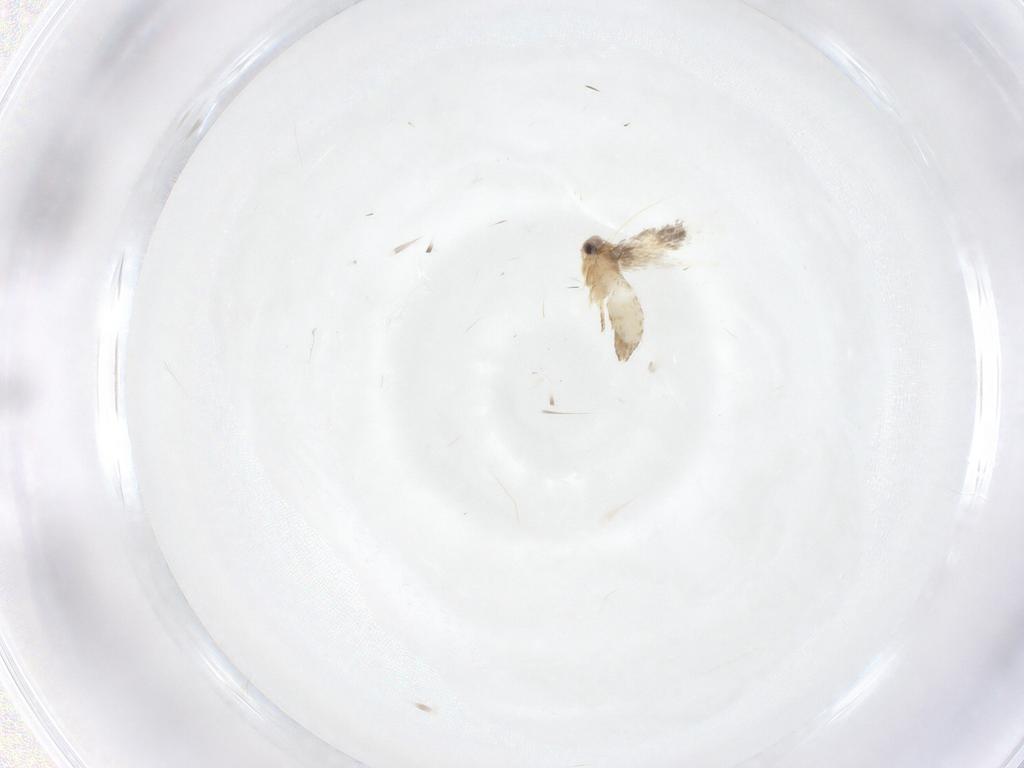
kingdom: Animalia
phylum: Arthropoda
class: Insecta
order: Lepidoptera
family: Nepticulidae
